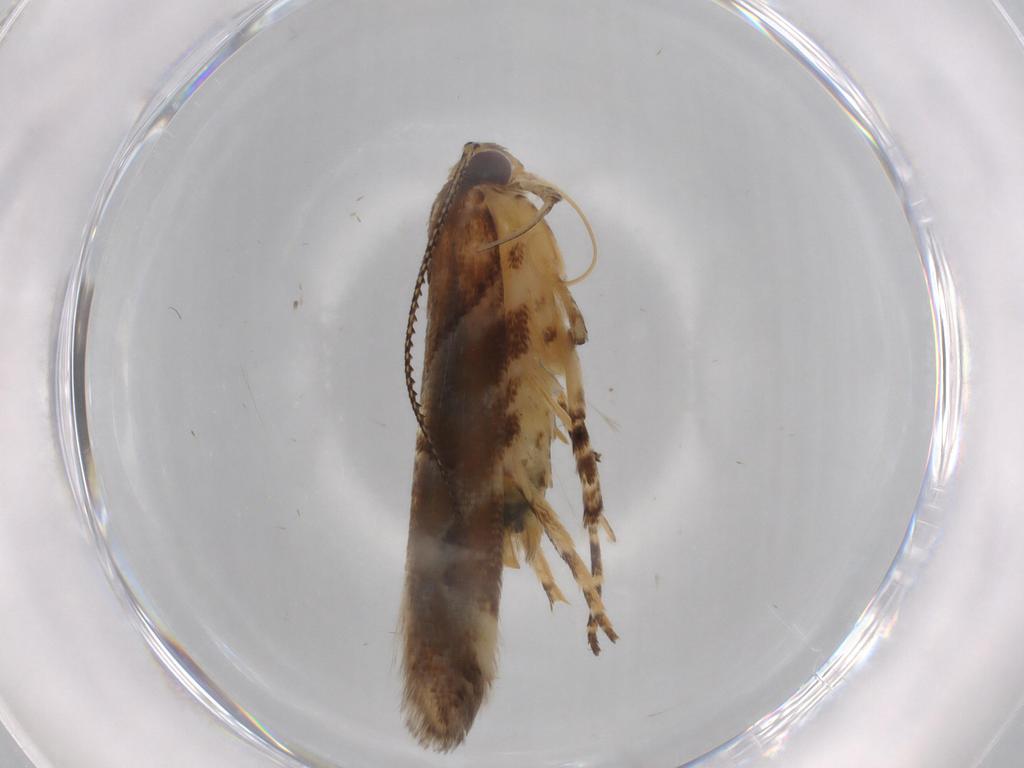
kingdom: Animalia
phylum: Arthropoda
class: Insecta
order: Lepidoptera
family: Gelechiidae
